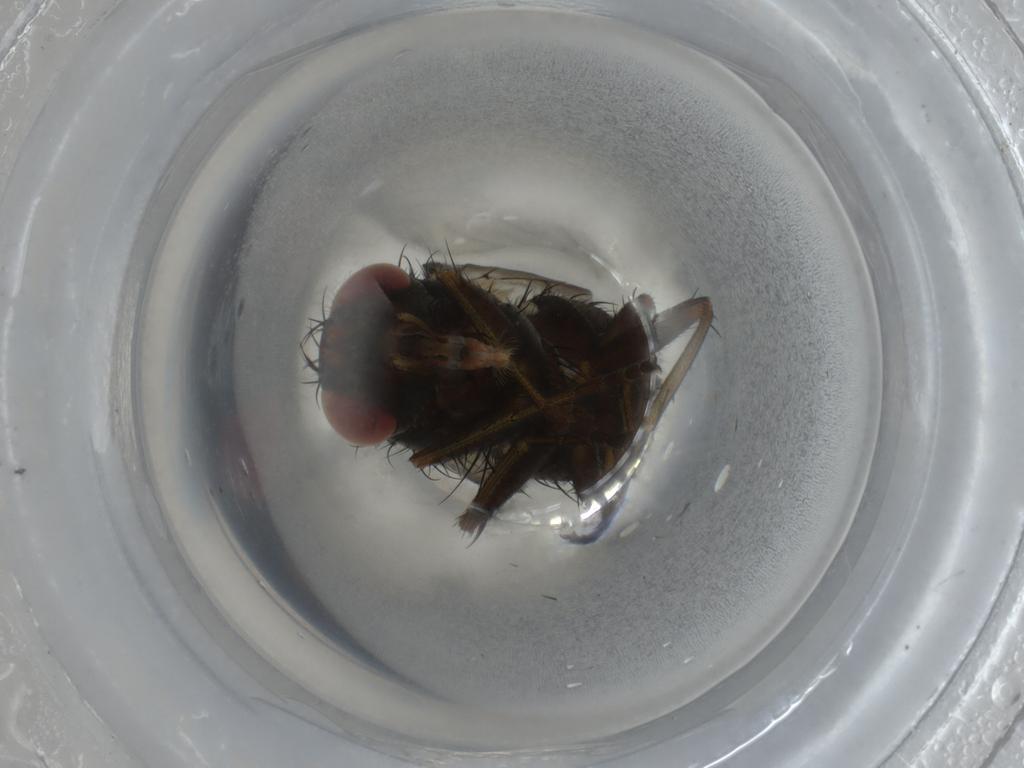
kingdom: Animalia
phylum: Arthropoda
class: Insecta
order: Diptera
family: Tachinidae
